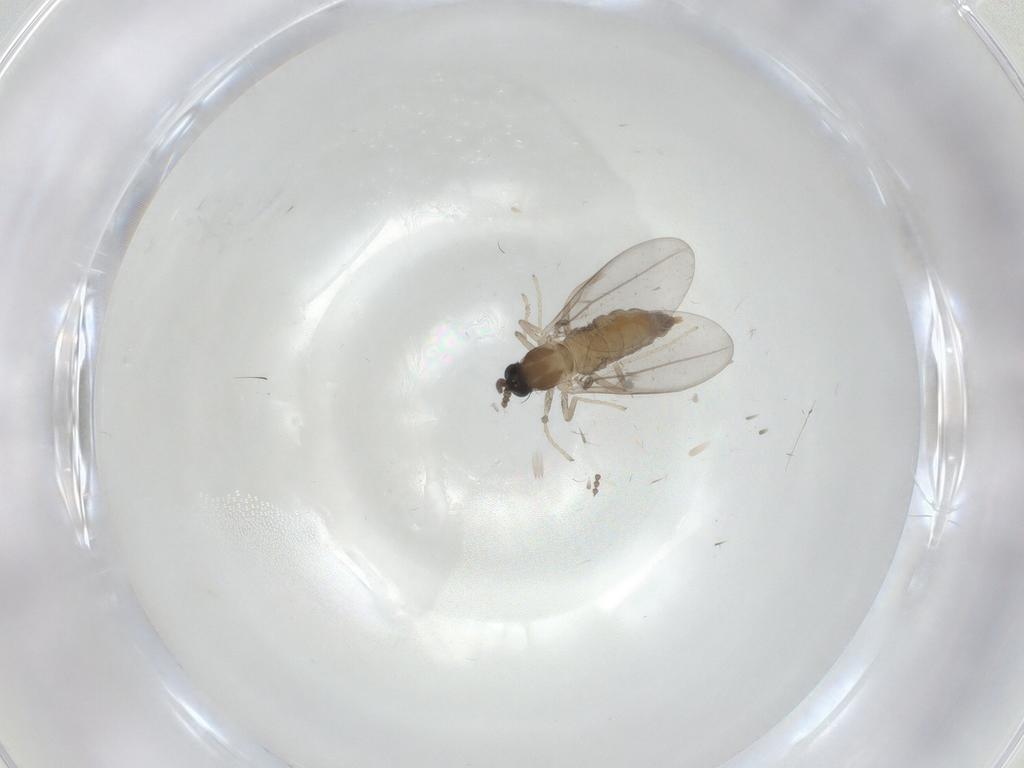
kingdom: Animalia
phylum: Arthropoda
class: Insecta
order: Diptera
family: Cecidomyiidae
